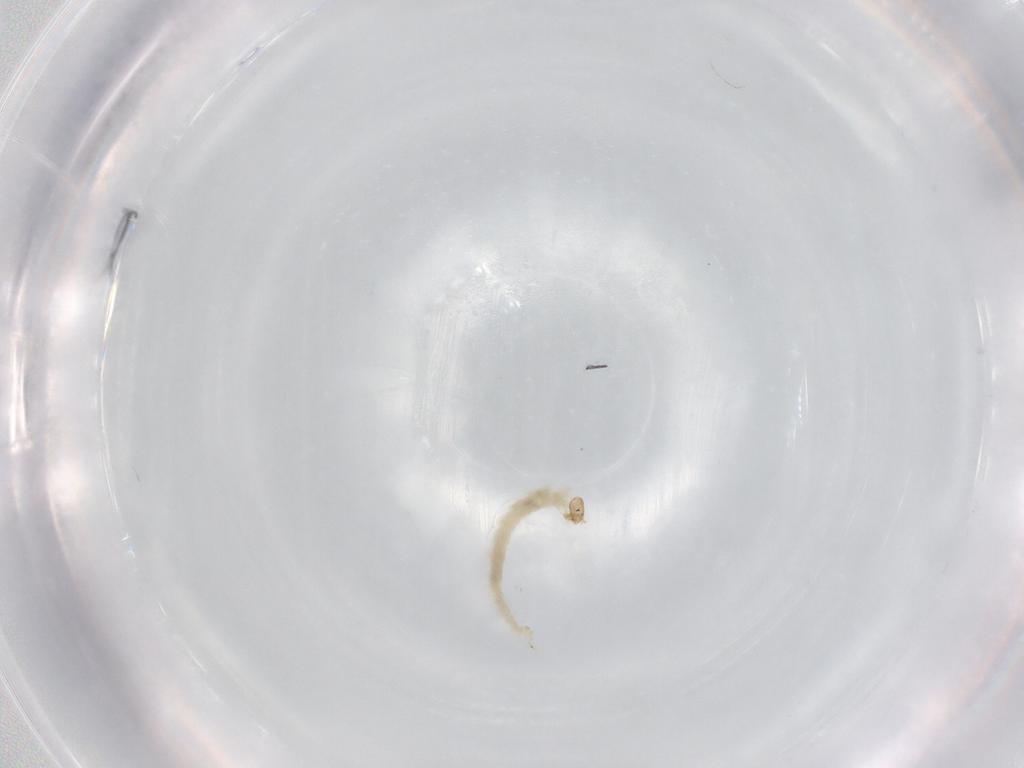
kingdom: Animalia
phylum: Arthropoda
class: Insecta
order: Diptera
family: Chironomidae
